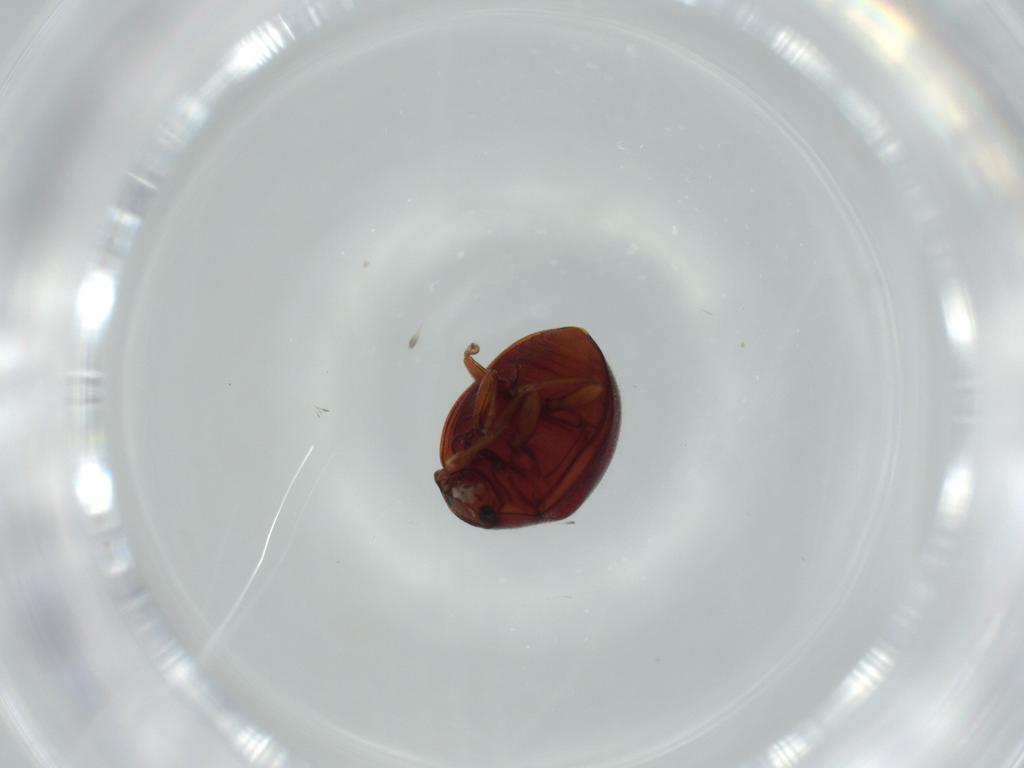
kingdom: Animalia
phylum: Arthropoda
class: Insecta
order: Coleoptera
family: Coccinellidae
